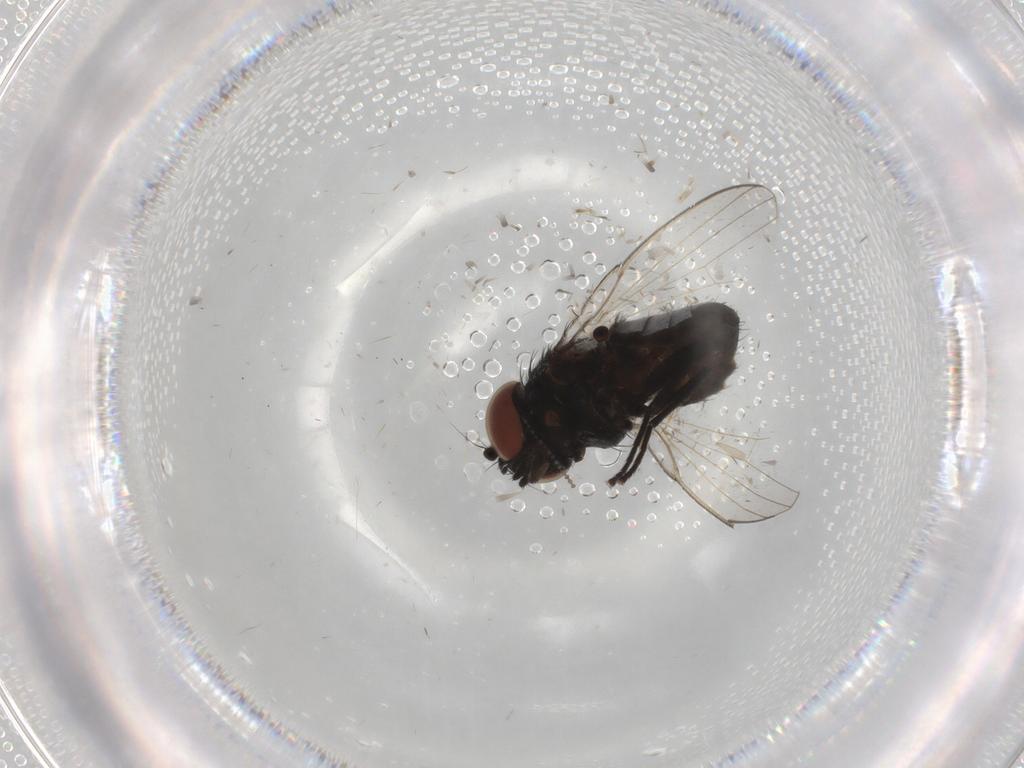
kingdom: Animalia
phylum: Arthropoda
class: Insecta
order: Diptera
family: Milichiidae
